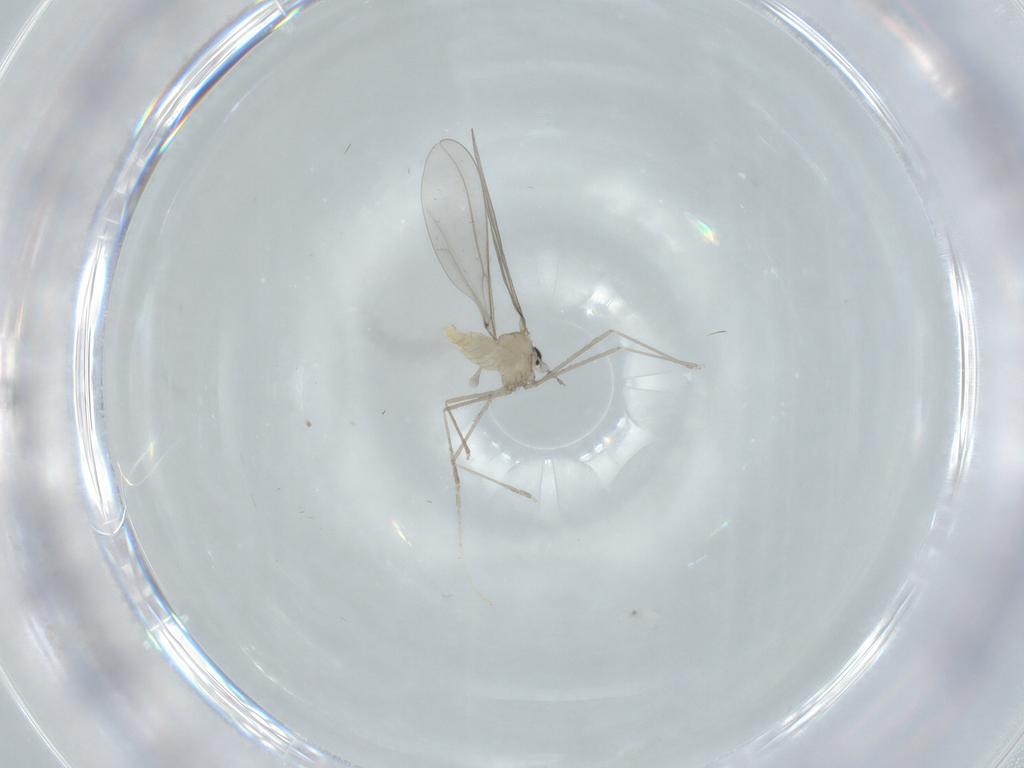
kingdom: Animalia
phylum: Arthropoda
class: Insecta
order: Diptera
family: Cecidomyiidae
